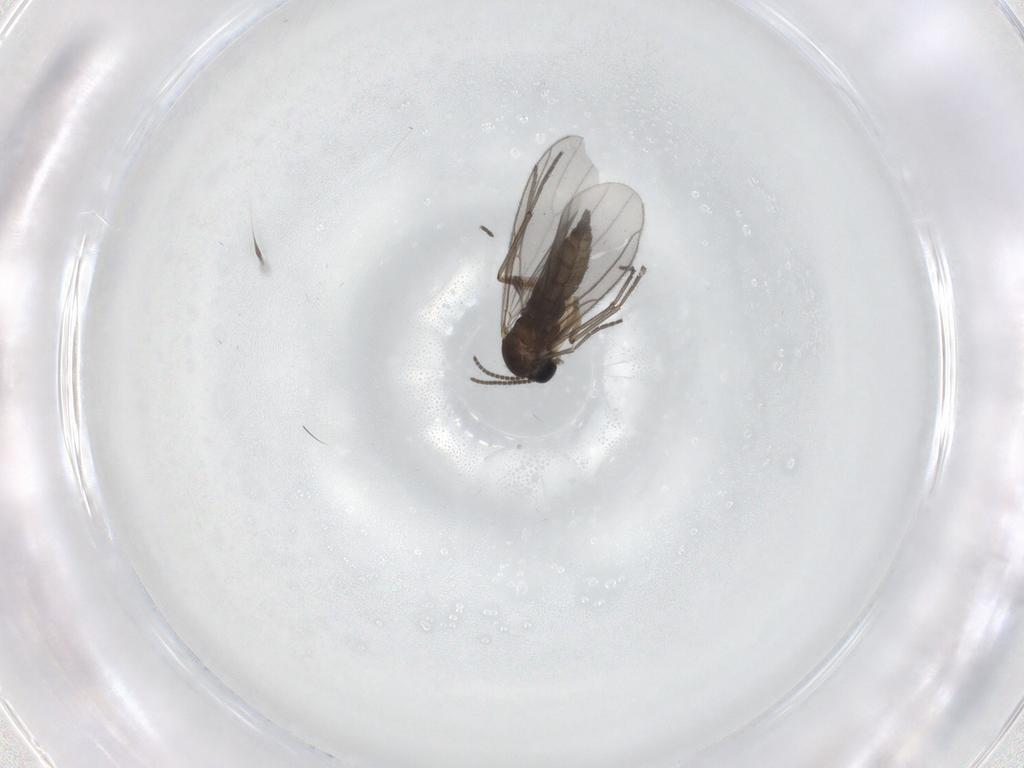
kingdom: Animalia
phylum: Arthropoda
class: Insecta
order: Diptera
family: Sciaridae
